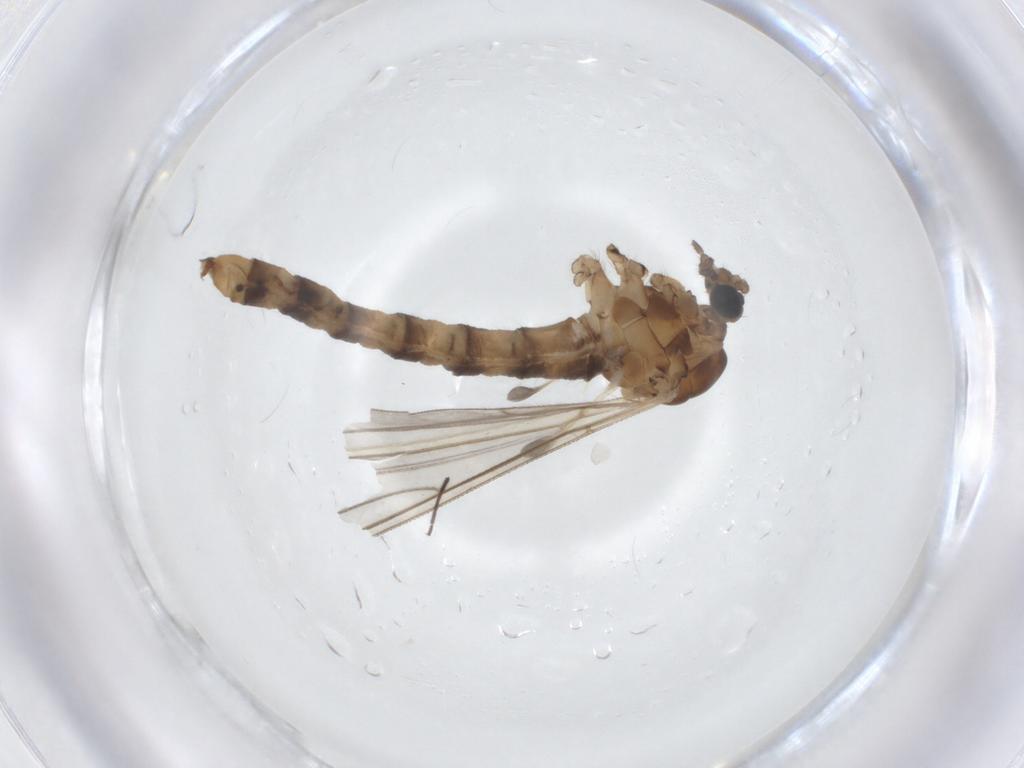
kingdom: Animalia
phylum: Arthropoda
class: Insecta
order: Diptera
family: Chironomidae
